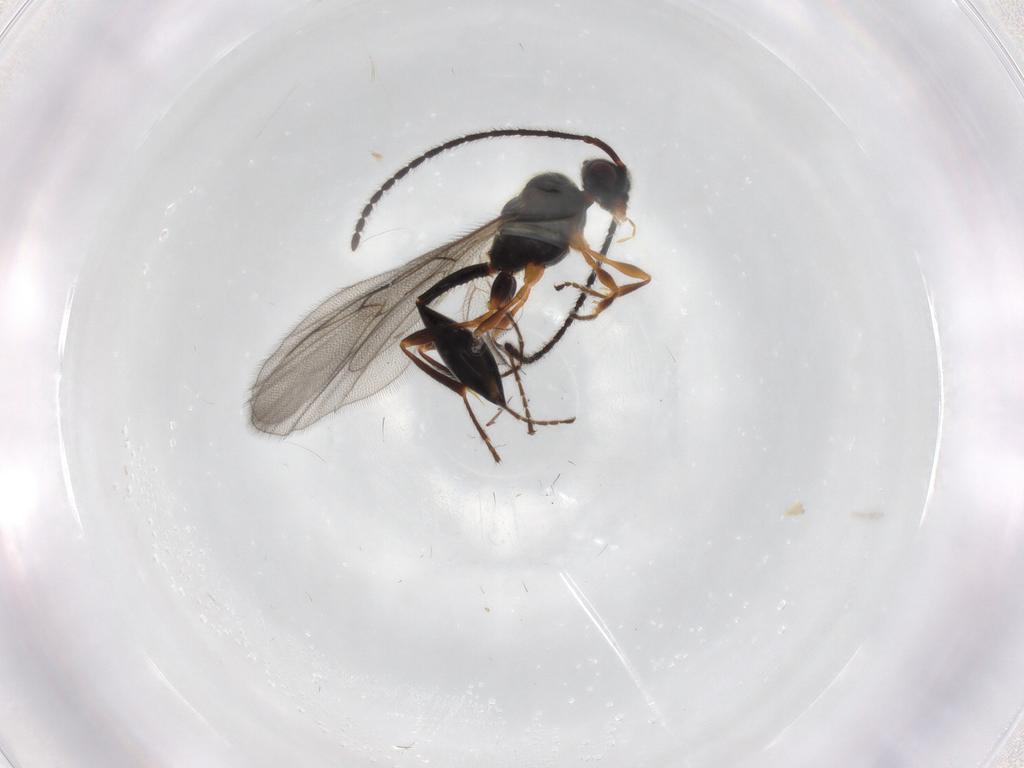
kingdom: Animalia
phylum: Arthropoda
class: Insecta
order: Hymenoptera
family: Diapriidae
